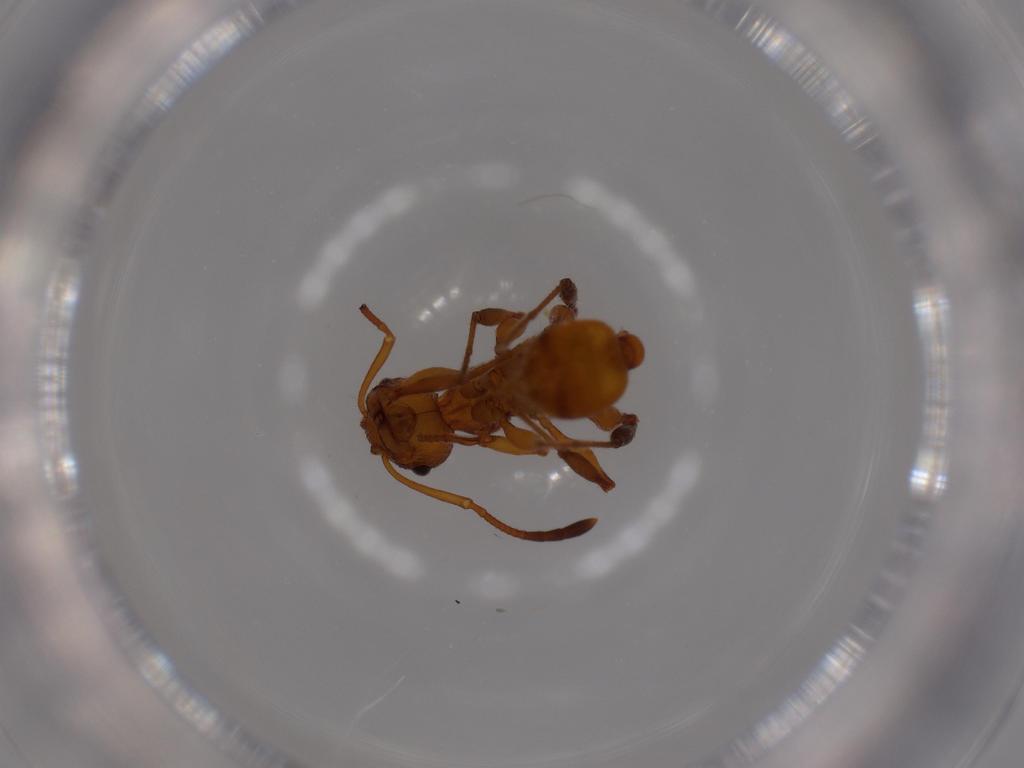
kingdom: Animalia
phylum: Arthropoda
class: Insecta
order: Hymenoptera
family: Formicidae
